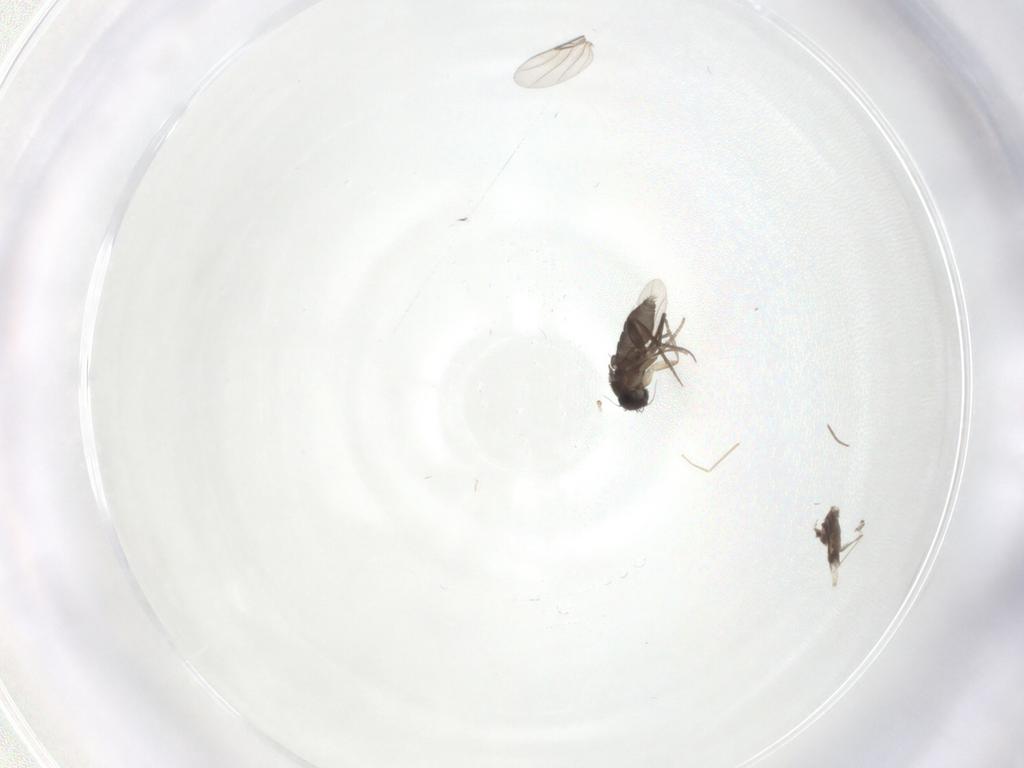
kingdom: Animalia
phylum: Arthropoda
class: Insecta
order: Diptera
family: Phoridae
